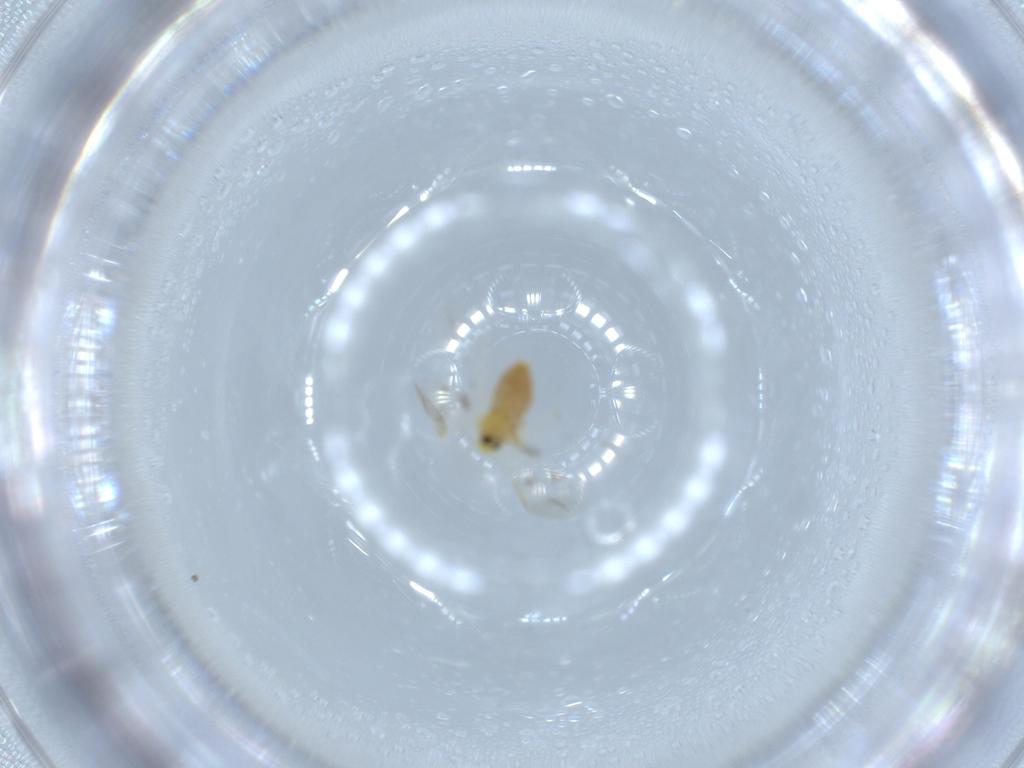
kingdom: Animalia
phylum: Arthropoda
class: Insecta
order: Hemiptera
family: Aleyrodidae
